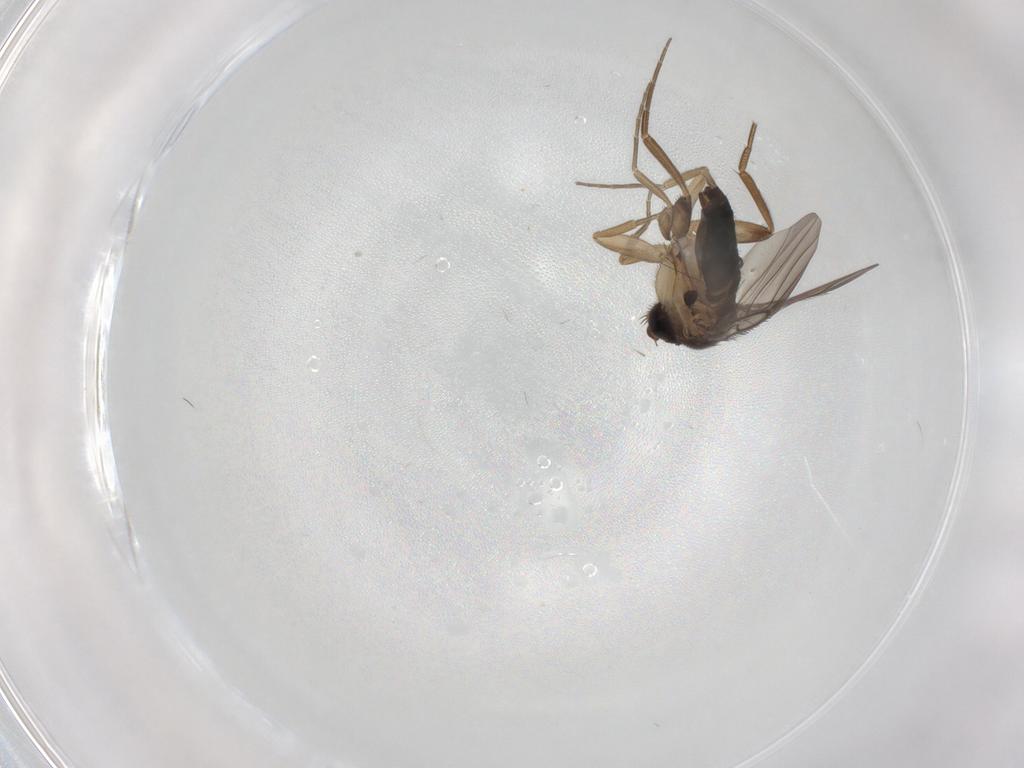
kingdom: Animalia
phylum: Arthropoda
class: Insecta
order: Diptera
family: Phoridae
